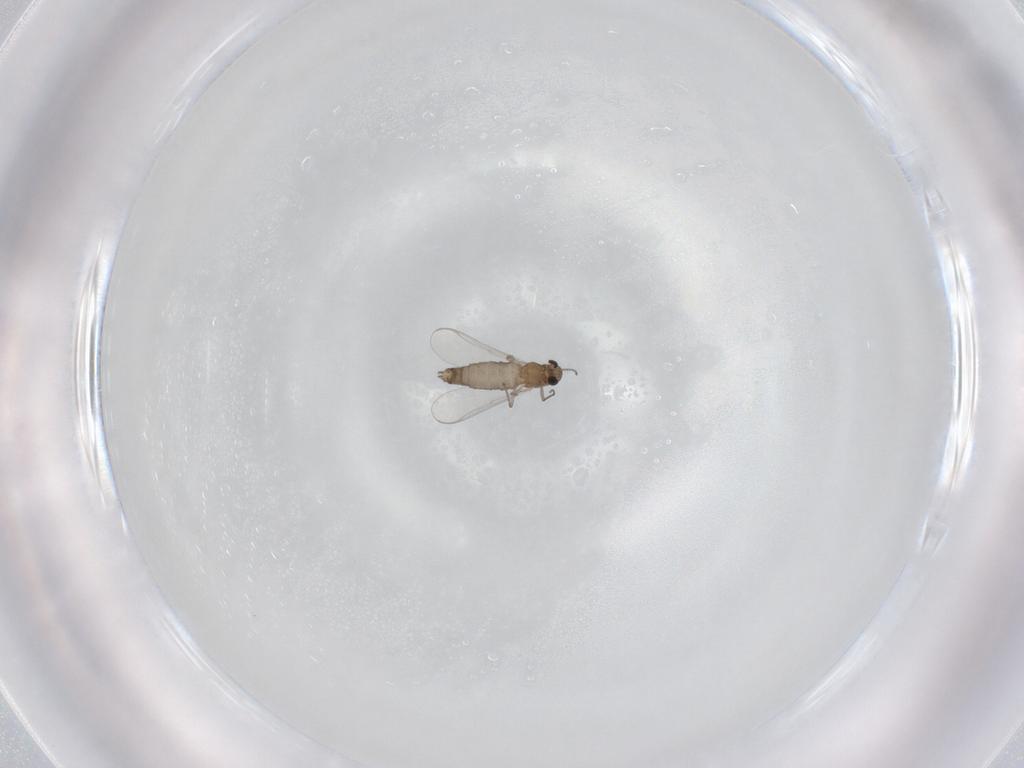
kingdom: Animalia
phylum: Arthropoda
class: Insecta
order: Diptera
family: Chironomidae
